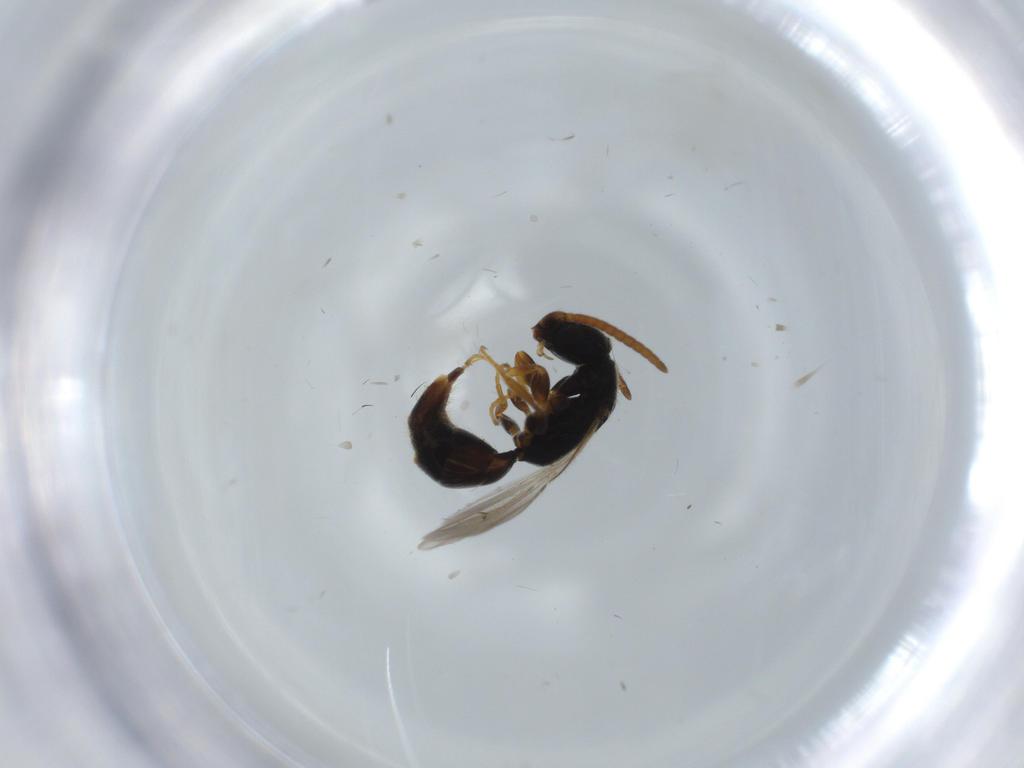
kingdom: Animalia
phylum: Arthropoda
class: Insecta
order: Hymenoptera
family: Bethylidae
